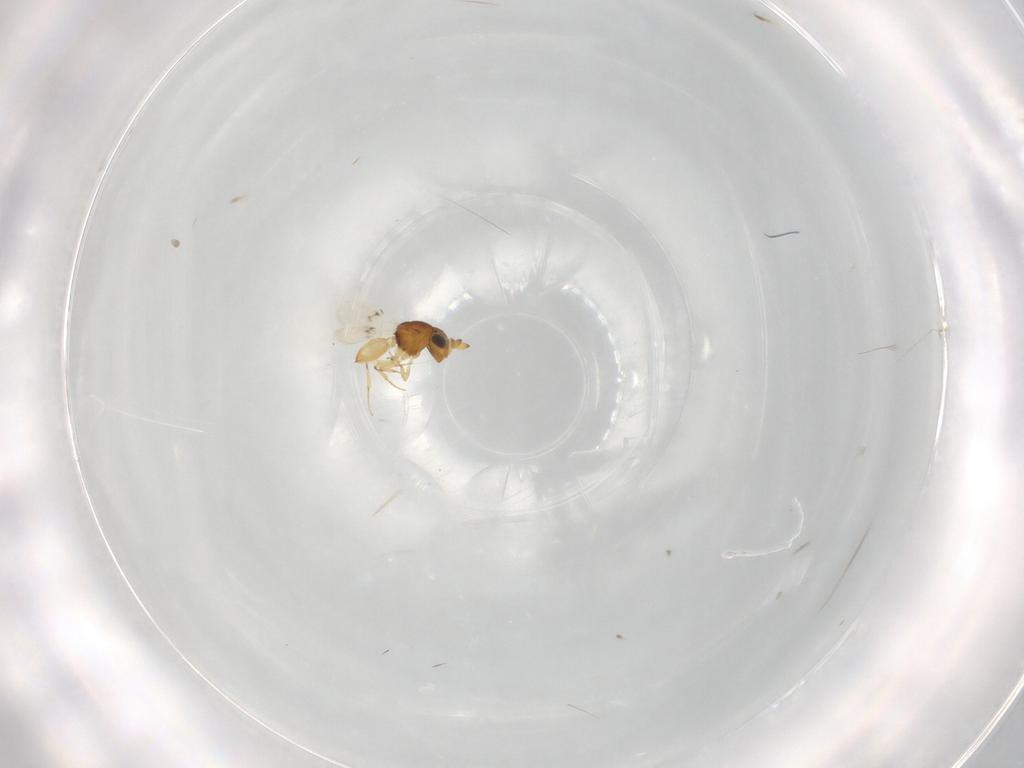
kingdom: Animalia
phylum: Arthropoda
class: Insecta
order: Hymenoptera
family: Scelionidae
